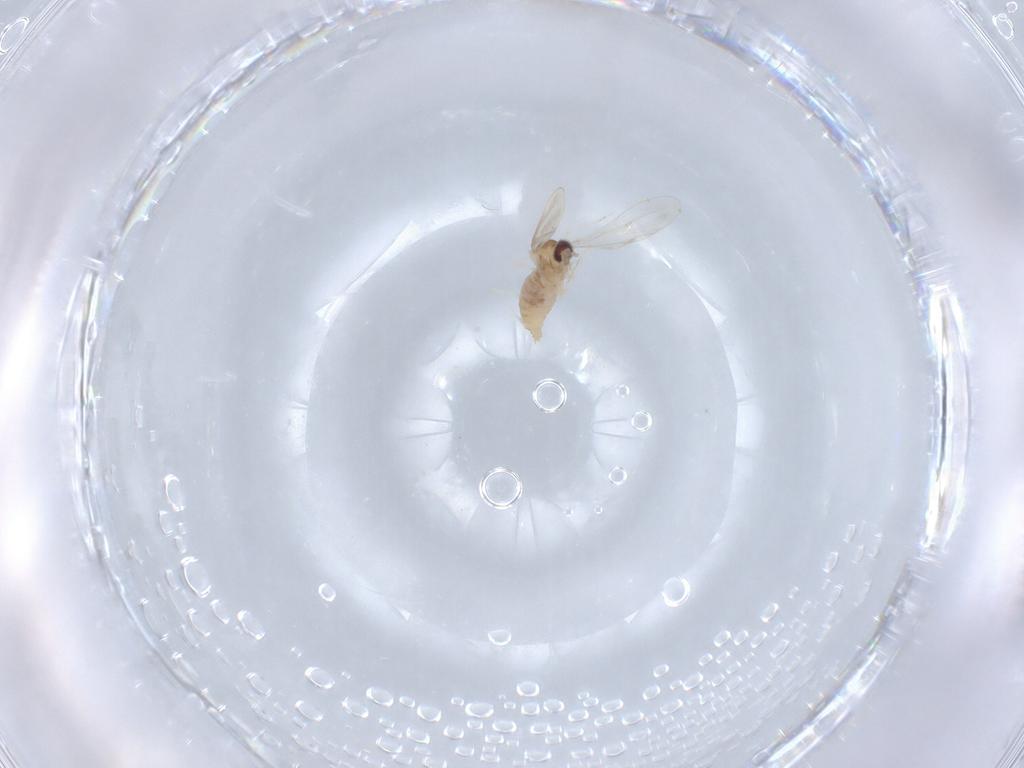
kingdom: Animalia
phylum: Arthropoda
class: Insecta
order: Diptera
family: Cecidomyiidae
